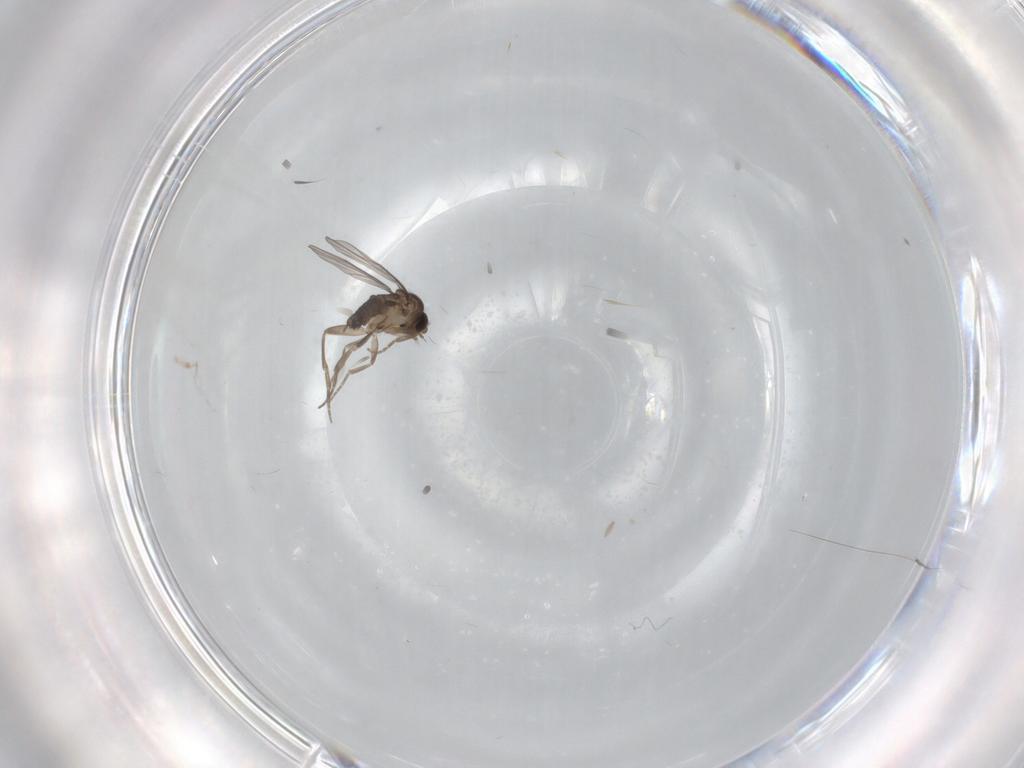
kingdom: Animalia
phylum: Arthropoda
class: Insecta
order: Diptera
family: Phoridae
